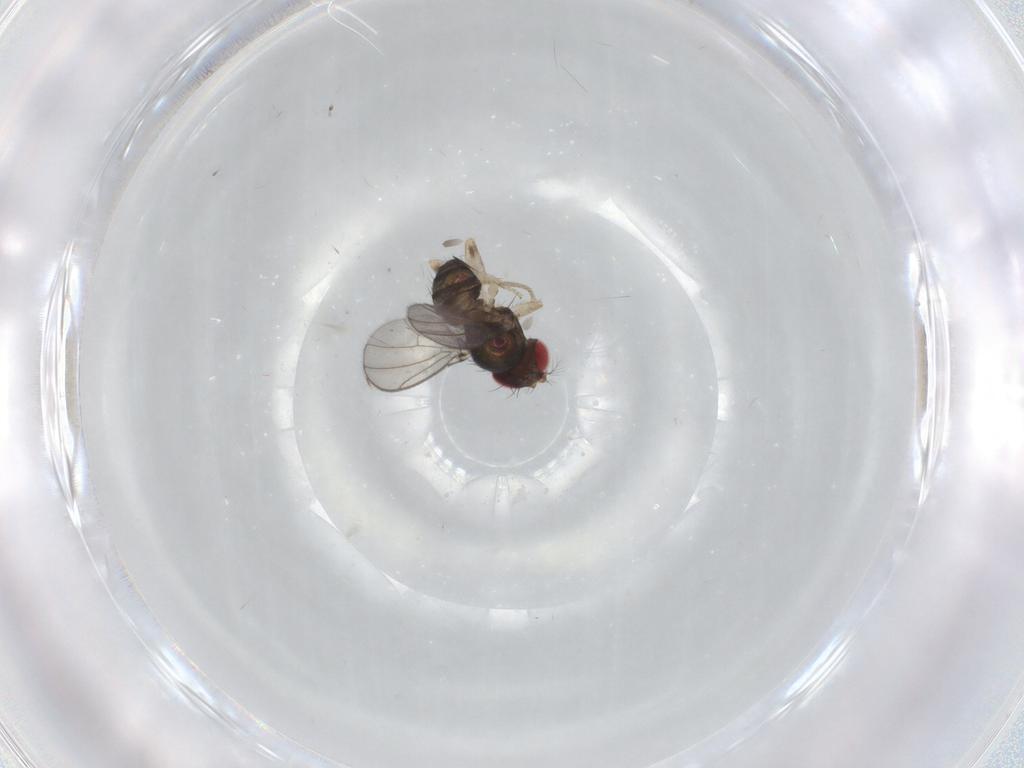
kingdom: Animalia
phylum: Arthropoda
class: Insecta
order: Diptera
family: Drosophilidae
